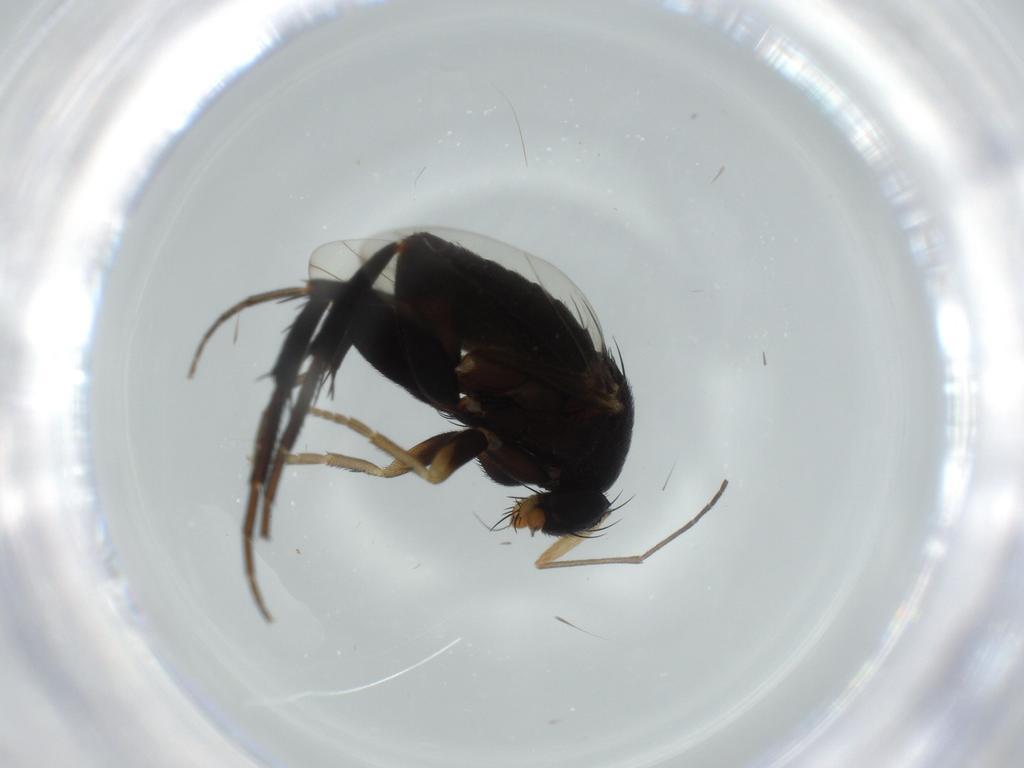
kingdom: Animalia
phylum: Arthropoda
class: Insecta
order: Diptera
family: Phoridae
